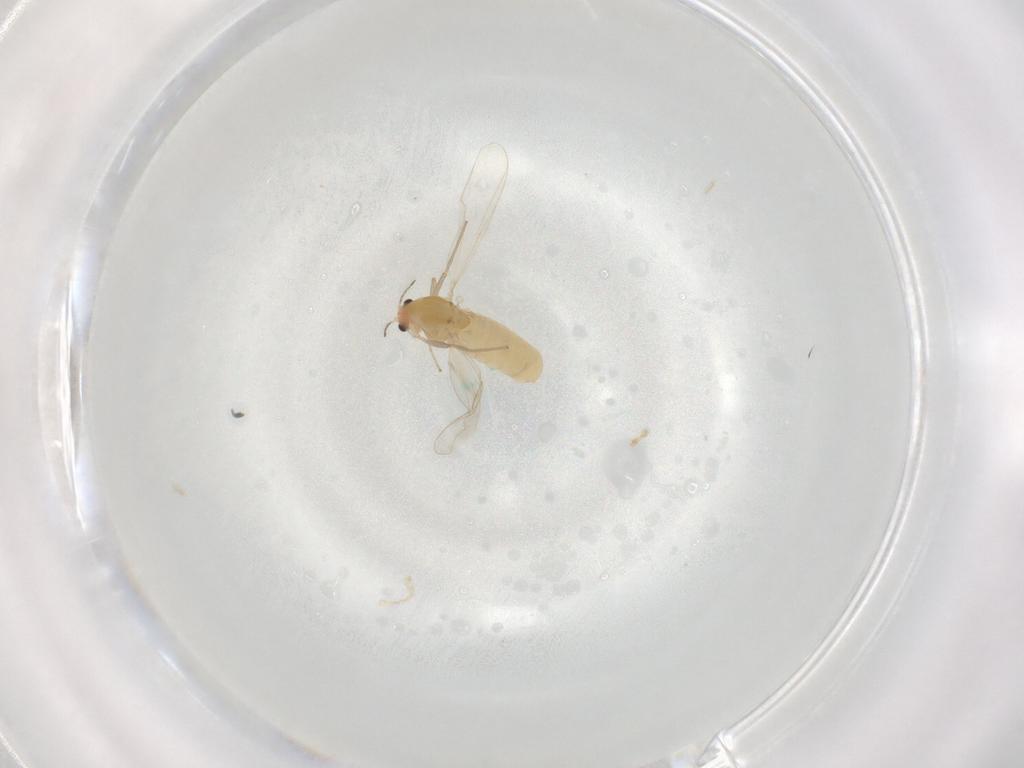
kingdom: Animalia
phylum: Arthropoda
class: Insecta
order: Diptera
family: Chironomidae
